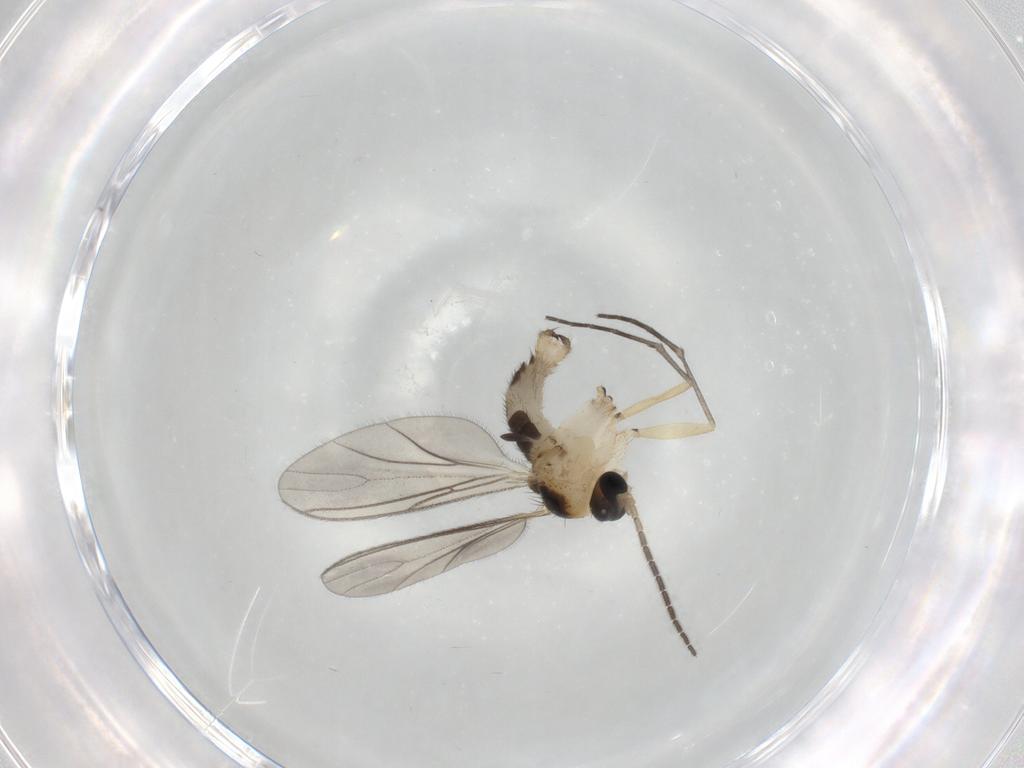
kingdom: Animalia
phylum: Arthropoda
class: Insecta
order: Diptera
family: Sciaridae
